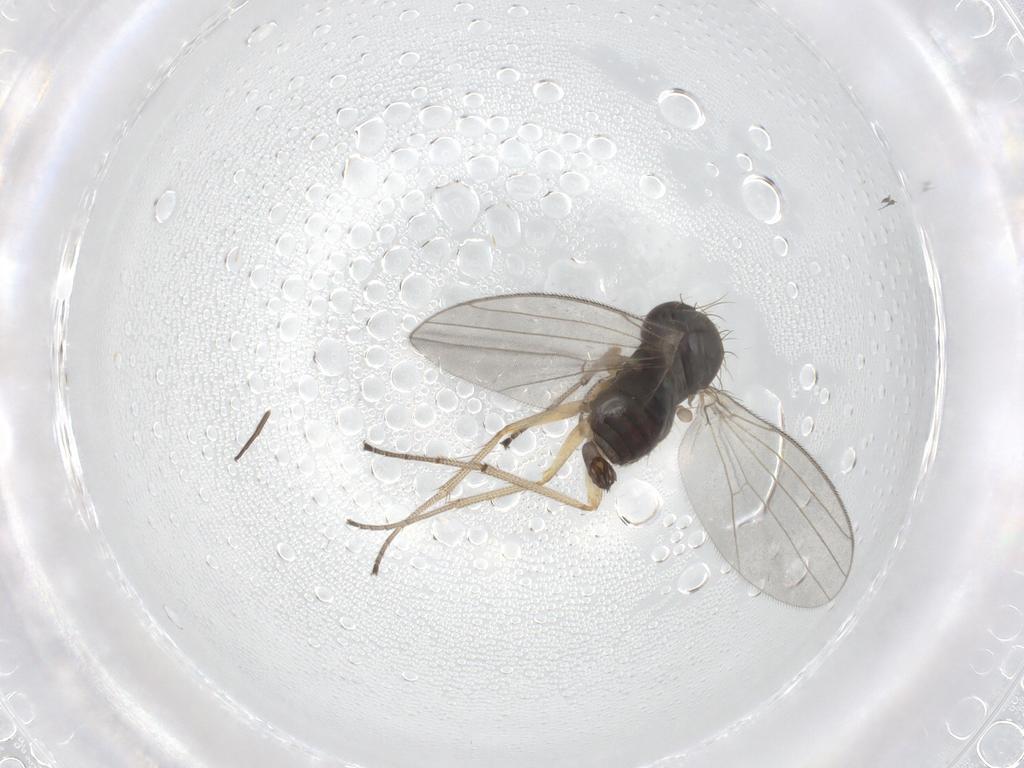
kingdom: Animalia
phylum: Arthropoda
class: Insecta
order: Diptera
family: Dolichopodidae
